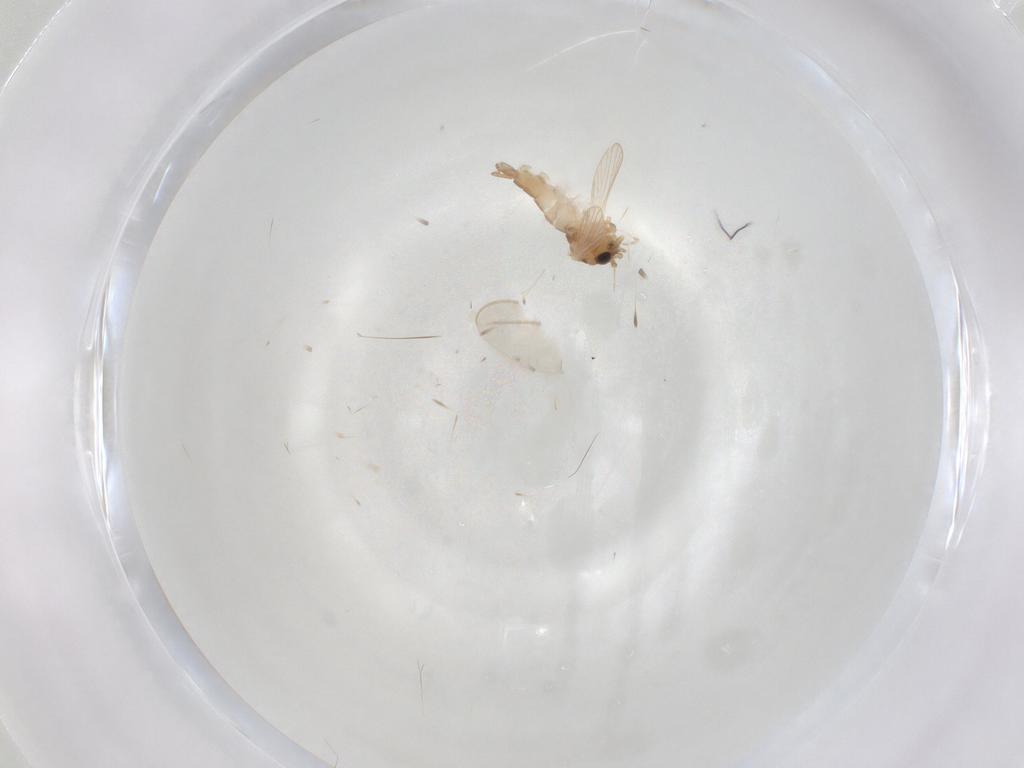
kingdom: Animalia
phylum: Arthropoda
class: Insecta
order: Diptera
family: Psychodidae
